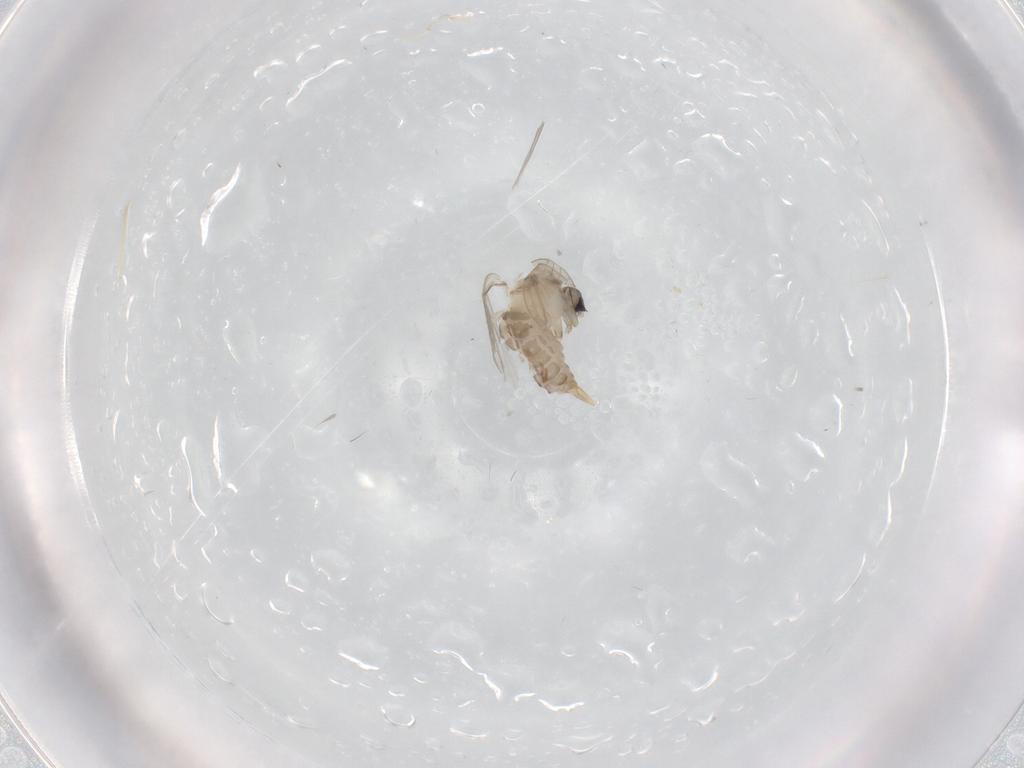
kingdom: Animalia
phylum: Arthropoda
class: Insecta
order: Diptera
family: Psychodidae
